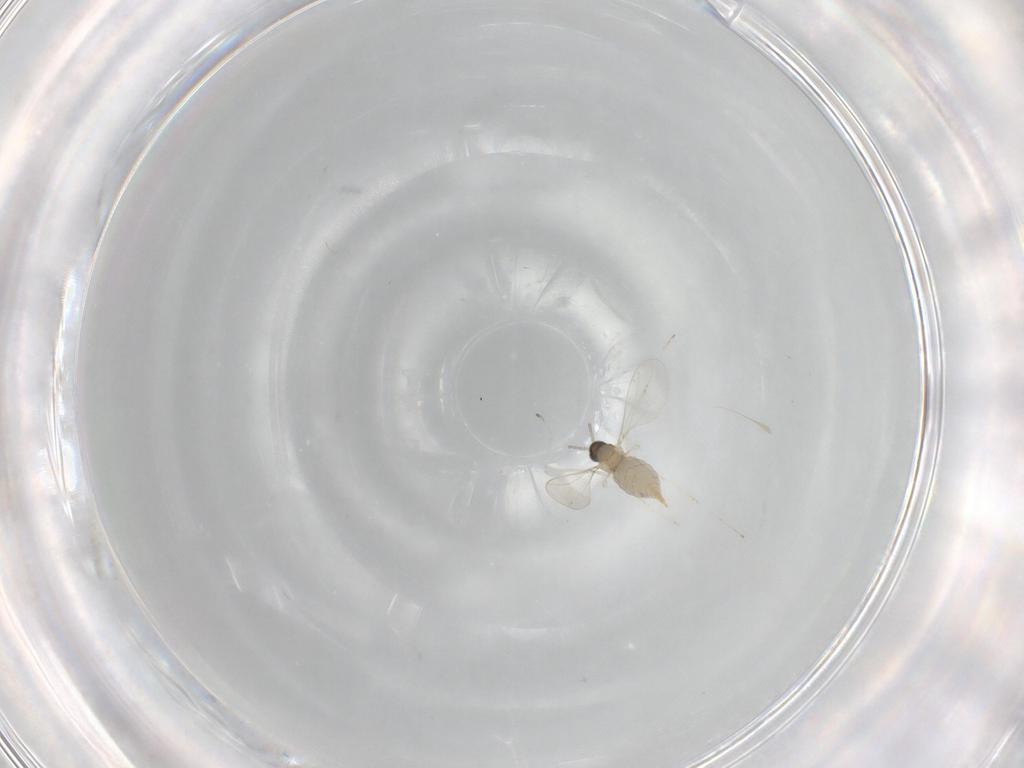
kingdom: Animalia
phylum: Arthropoda
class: Insecta
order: Diptera
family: Cecidomyiidae
